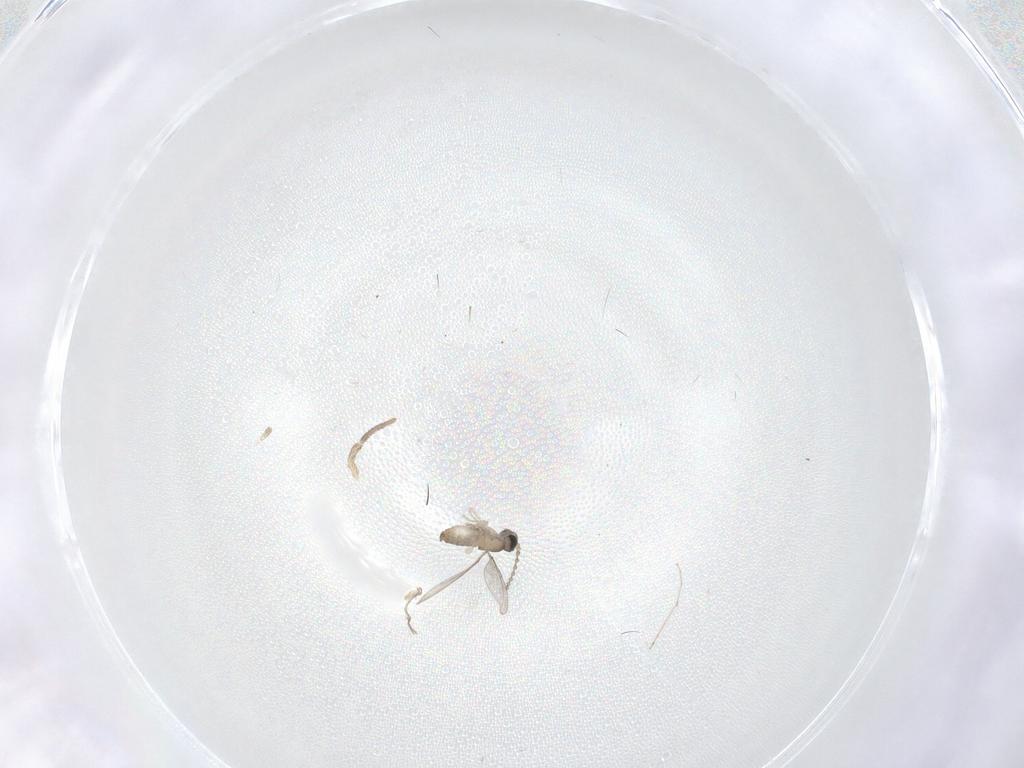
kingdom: Animalia
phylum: Arthropoda
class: Insecta
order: Diptera
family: Cecidomyiidae
